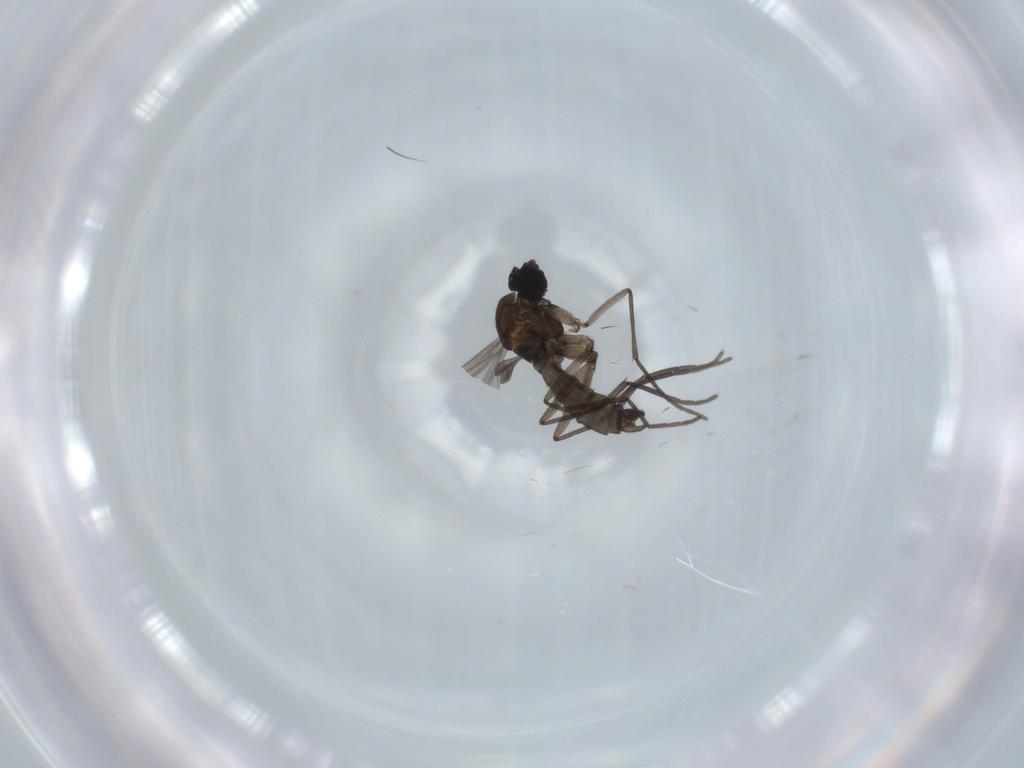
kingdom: Animalia
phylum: Arthropoda
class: Insecta
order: Diptera
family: Sciaridae
